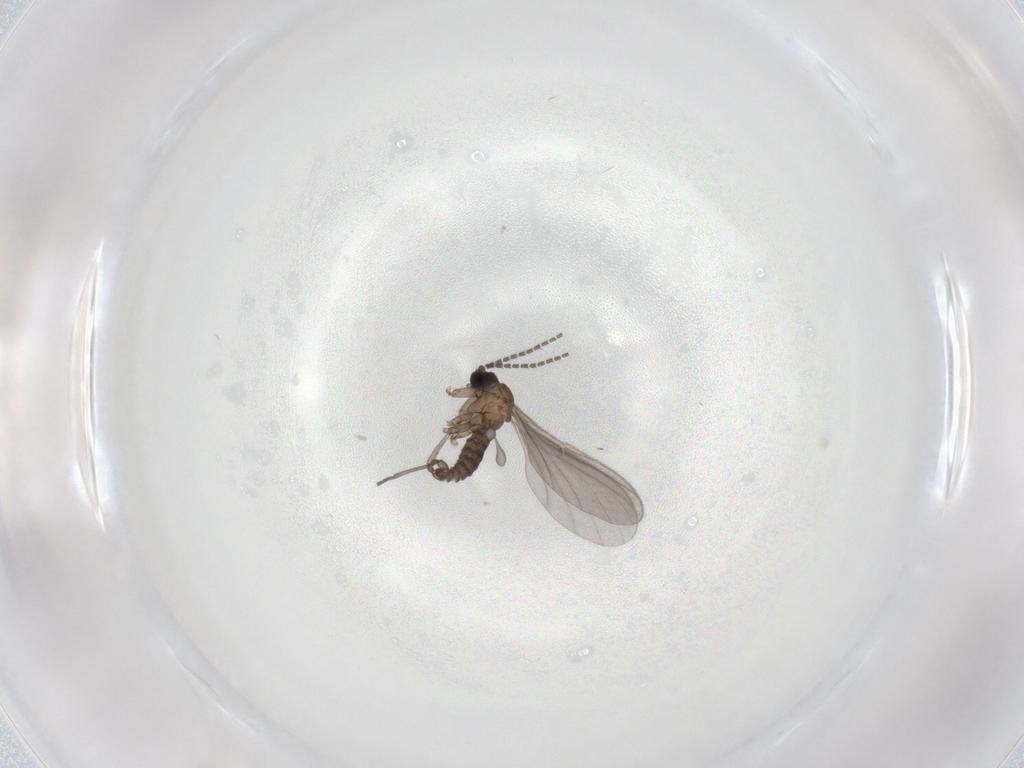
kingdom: Animalia
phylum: Arthropoda
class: Insecta
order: Diptera
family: Sciaridae
